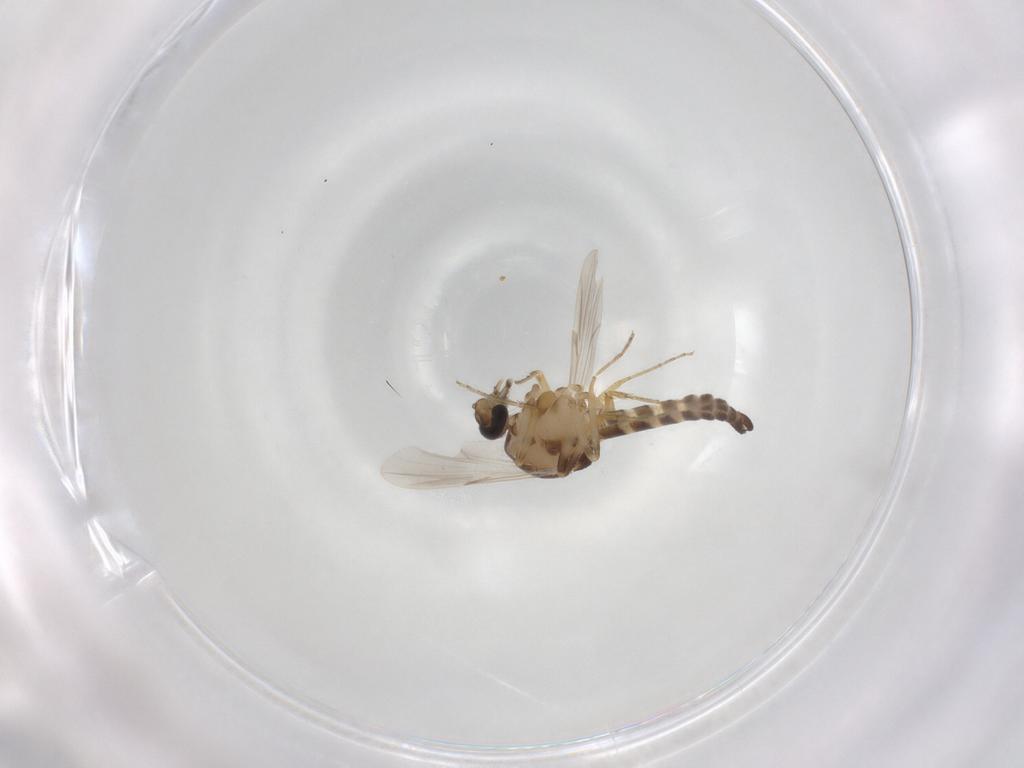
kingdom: Animalia
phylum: Arthropoda
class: Insecta
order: Diptera
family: Ceratopogonidae
